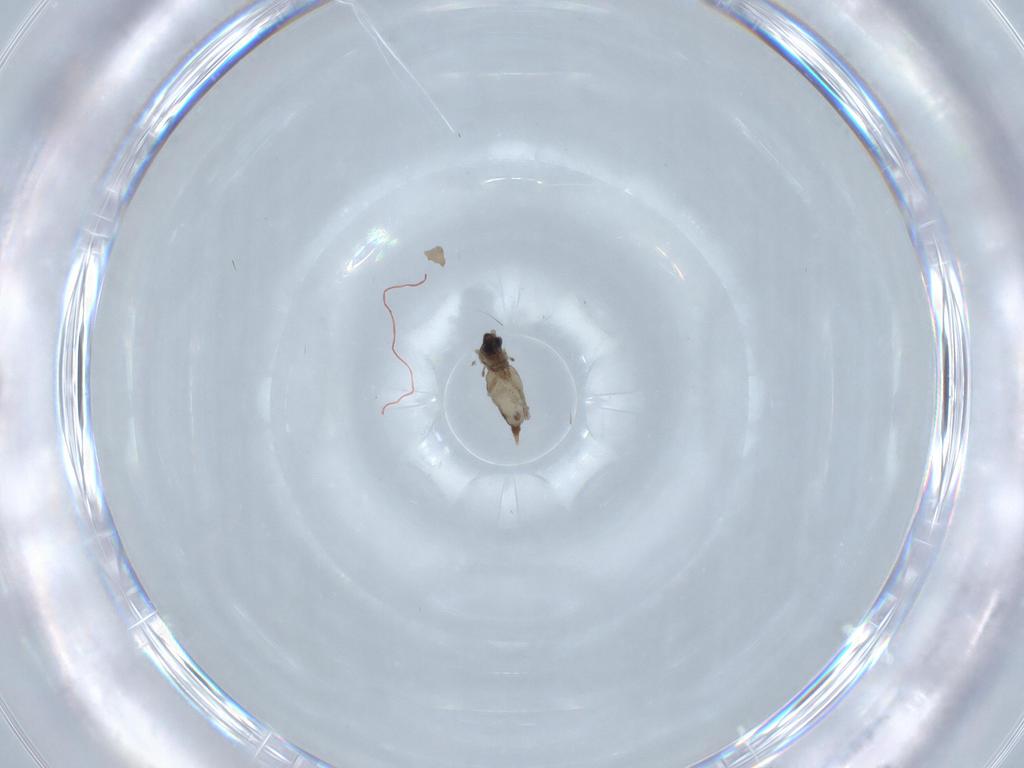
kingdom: Animalia
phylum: Arthropoda
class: Insecta
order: Diptera
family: Cecidomyiidae
